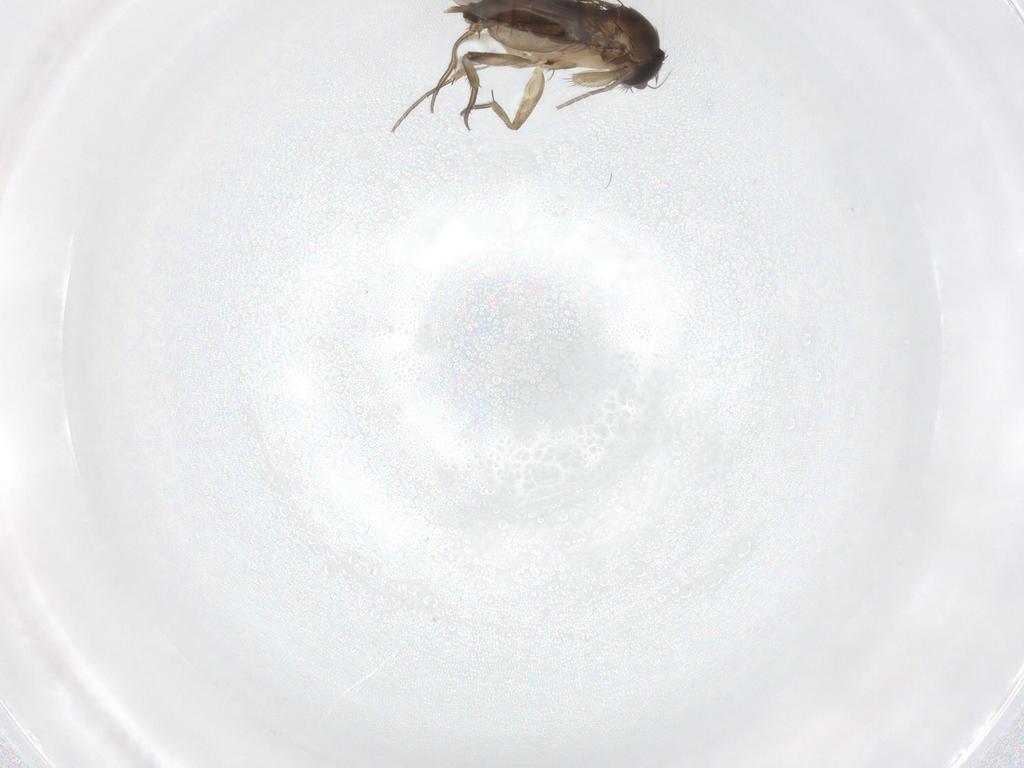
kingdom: Animalia
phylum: Arthropoda
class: Insecta
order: Diptera
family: Phoridae
